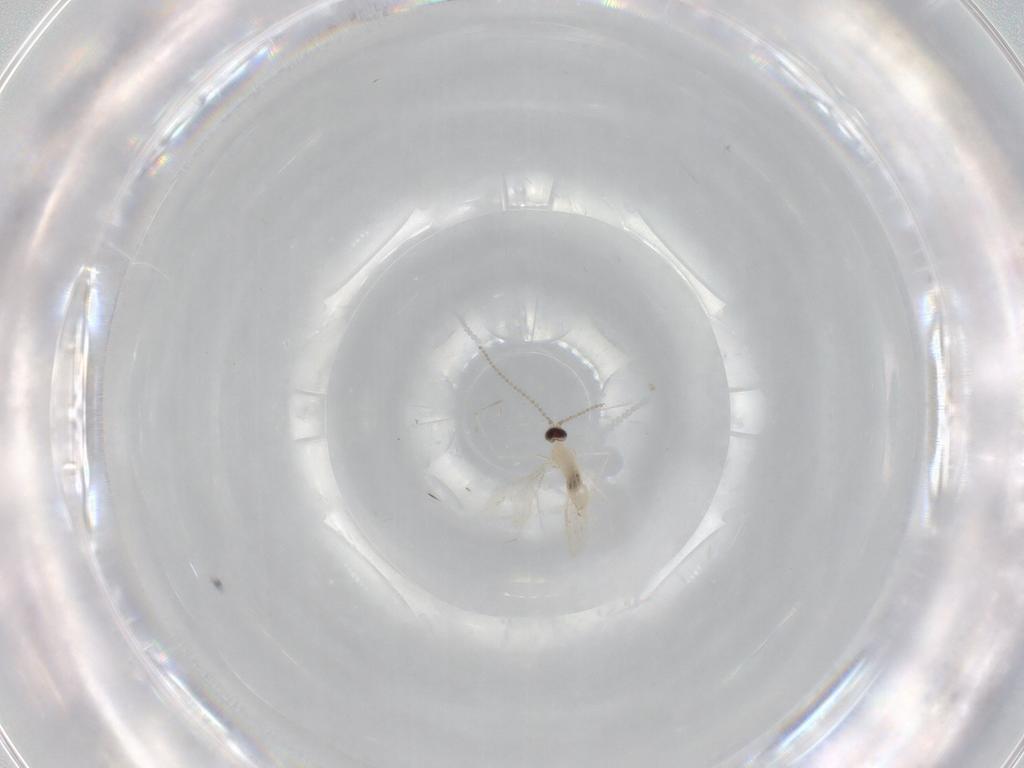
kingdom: Animalia
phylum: Arthropoda
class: Insecta
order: Diptera
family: Cecidomyiidae
